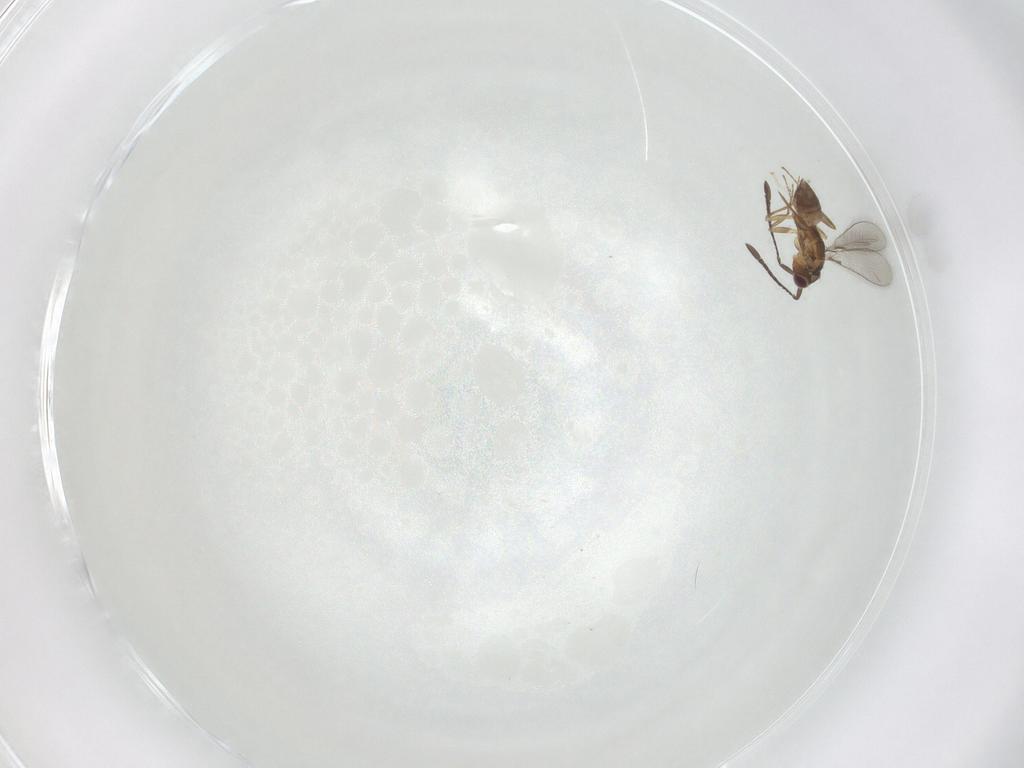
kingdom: Animalia
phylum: Arthropoda
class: Insecta
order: Hymenoptera
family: Mymaridae
